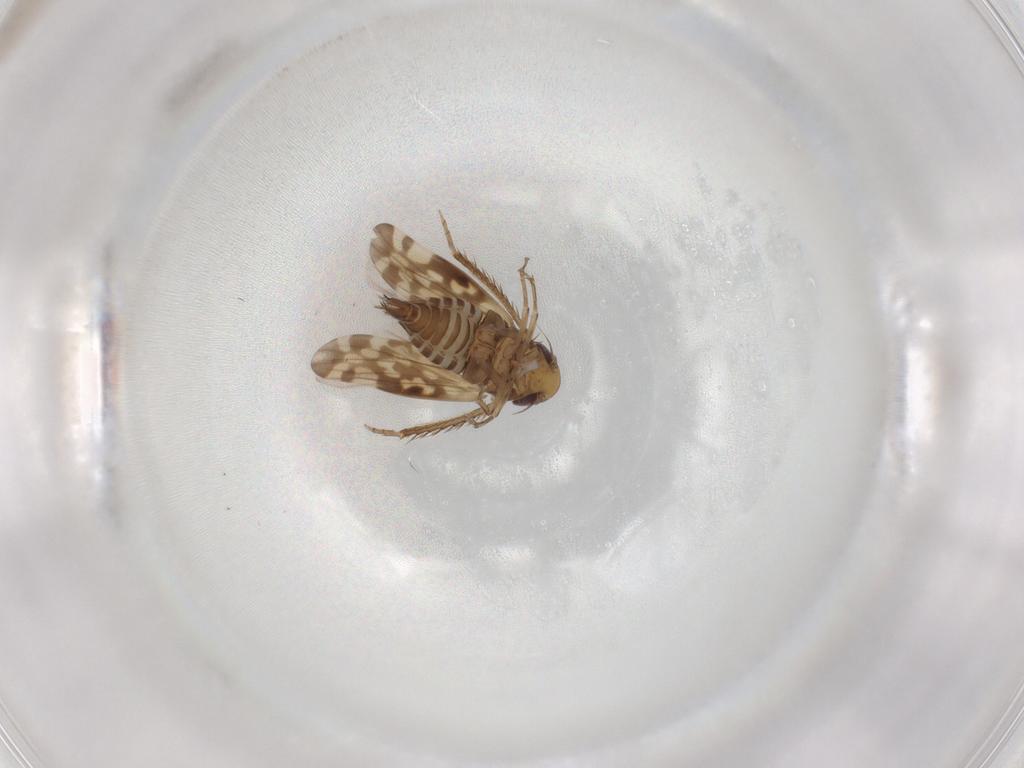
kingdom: Animalia
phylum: Arthropoda
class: Insecta
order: Hemiptera
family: Cicadellidae
